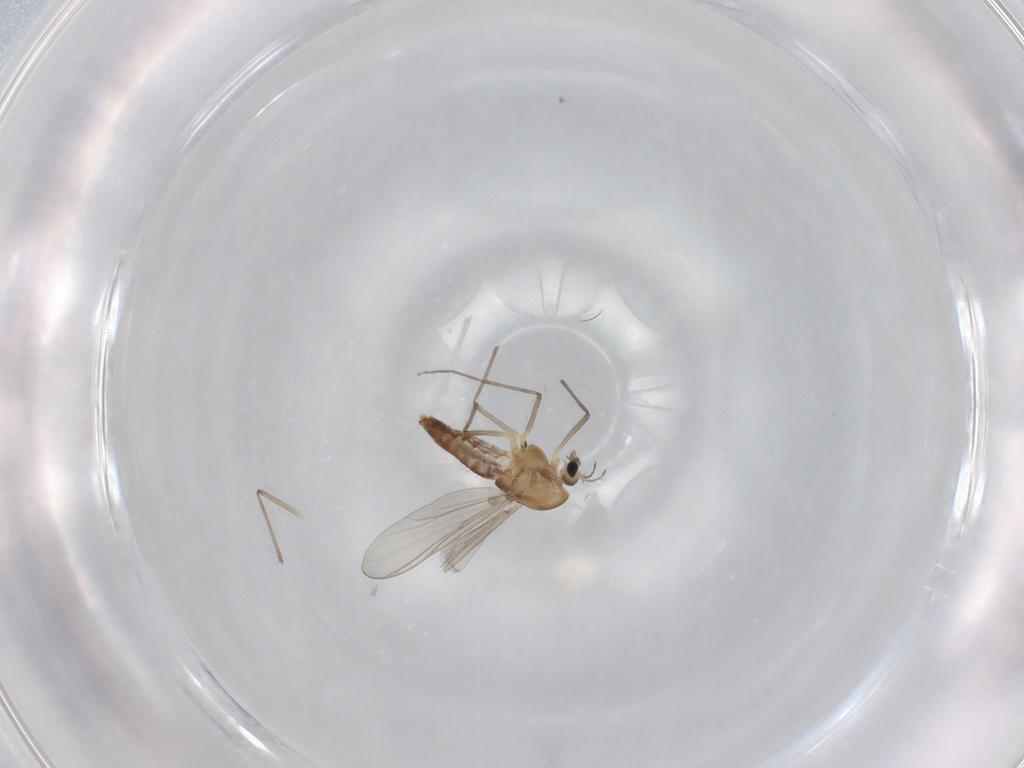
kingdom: Animalia
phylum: Arthropoda
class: Insecta
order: Diptera
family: Chironomidae
